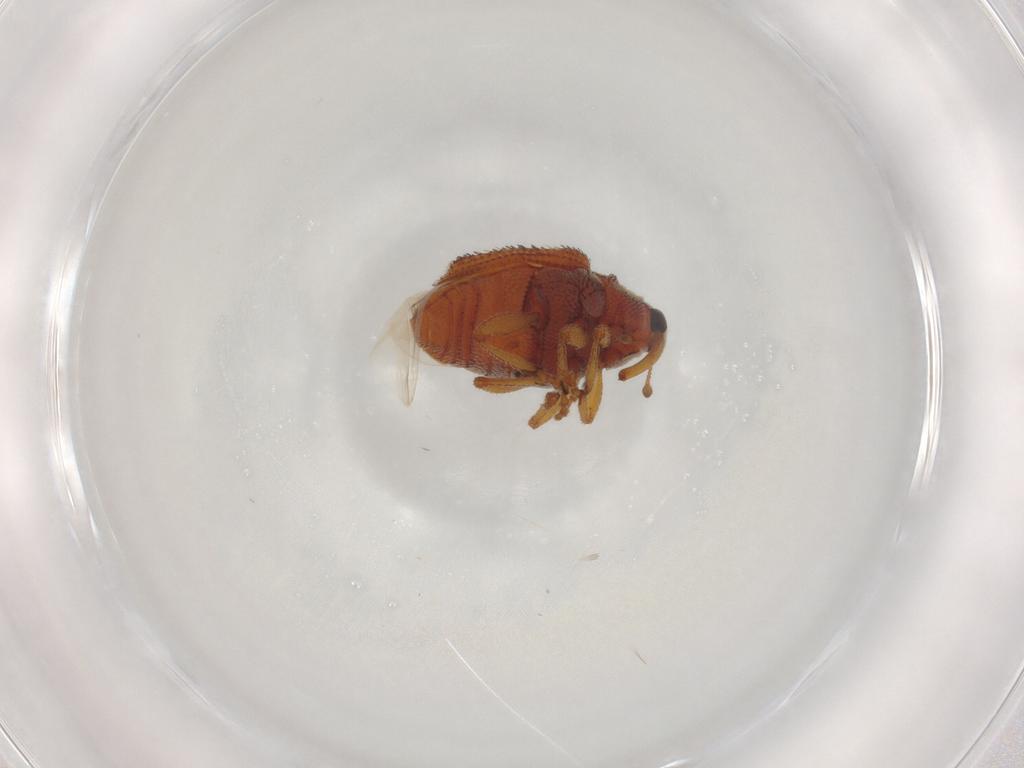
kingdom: Animalia
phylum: Arthropoda
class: Insecta
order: Coleoptera
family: Curculionidae
